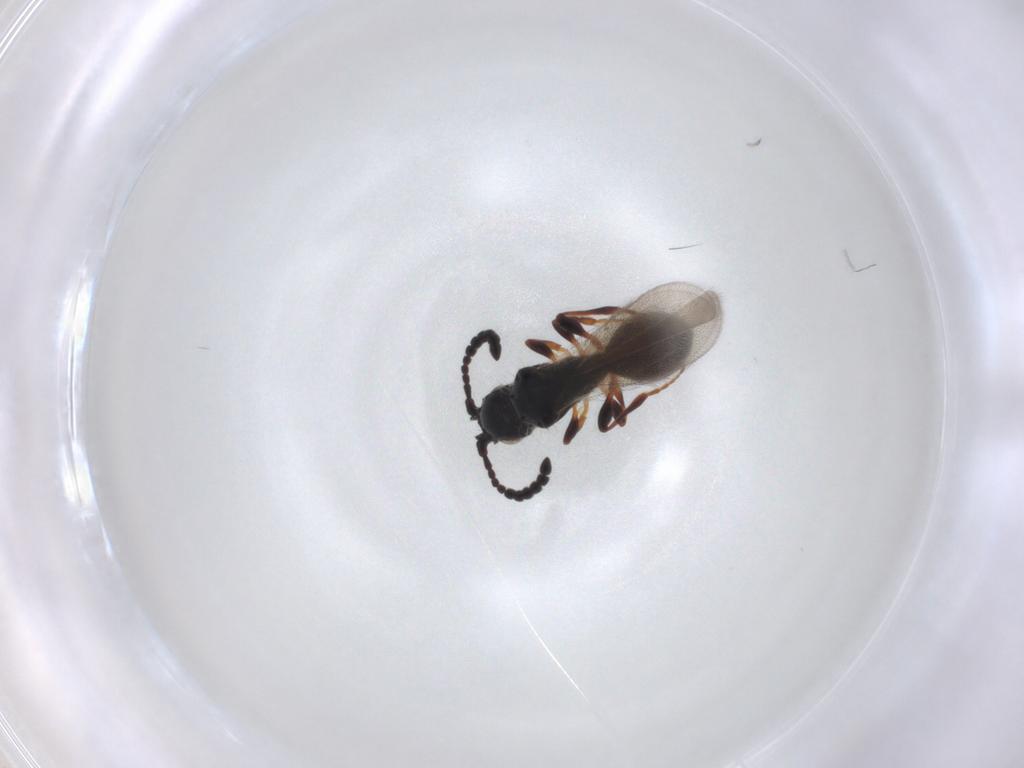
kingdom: Animalia
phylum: Arthropoda
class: Insecta
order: Hymenoptera
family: Diapriidae
